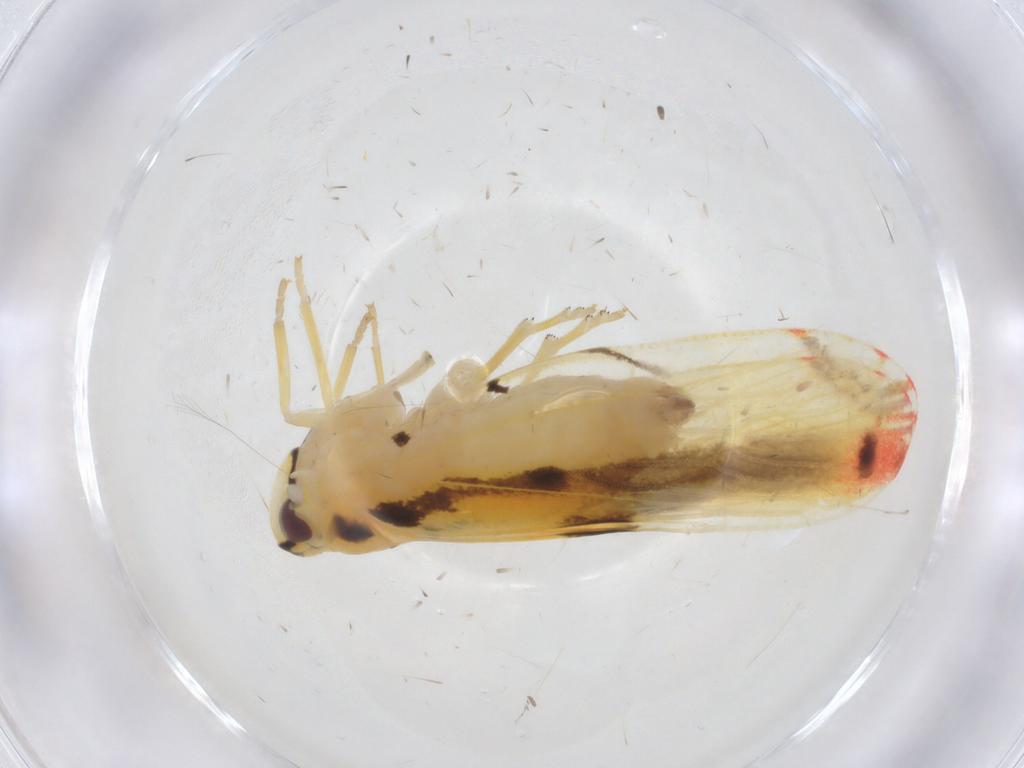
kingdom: Animalia
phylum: Arthropoda
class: Insecta
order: Hemiptera
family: Derbidae
